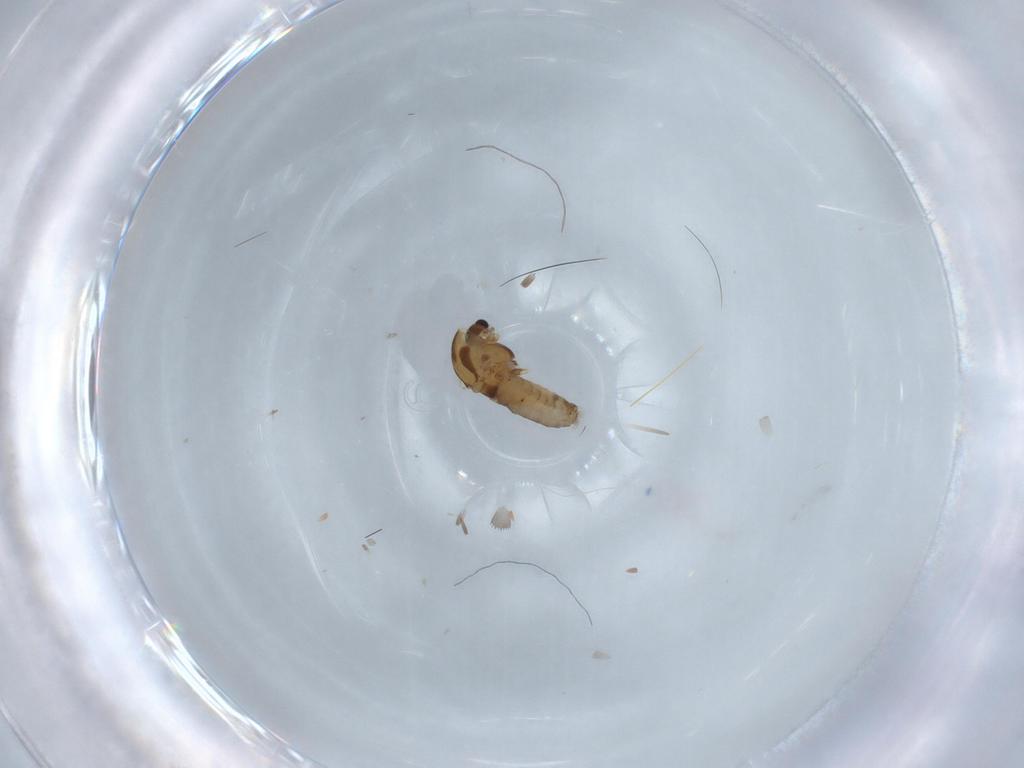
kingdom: Animalia
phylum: Arthropoda
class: Insecta
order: Diptera
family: Chironomidae
